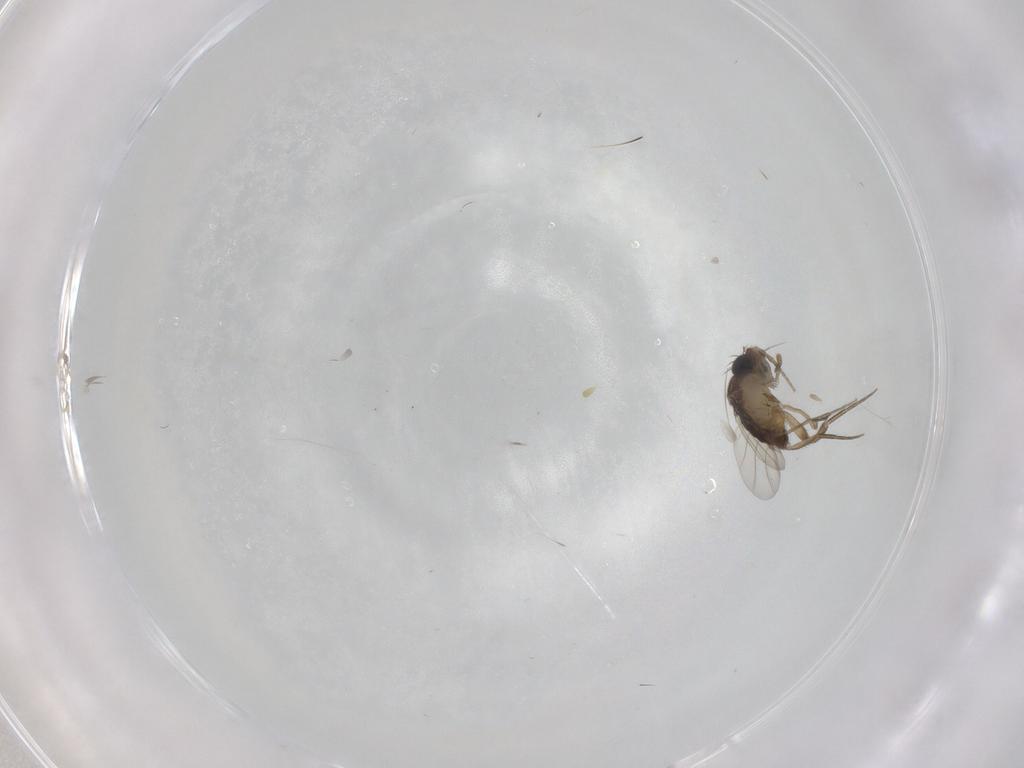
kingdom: Animalia
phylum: Arthropoda
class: Insecta
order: Diptera
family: Phoridae
